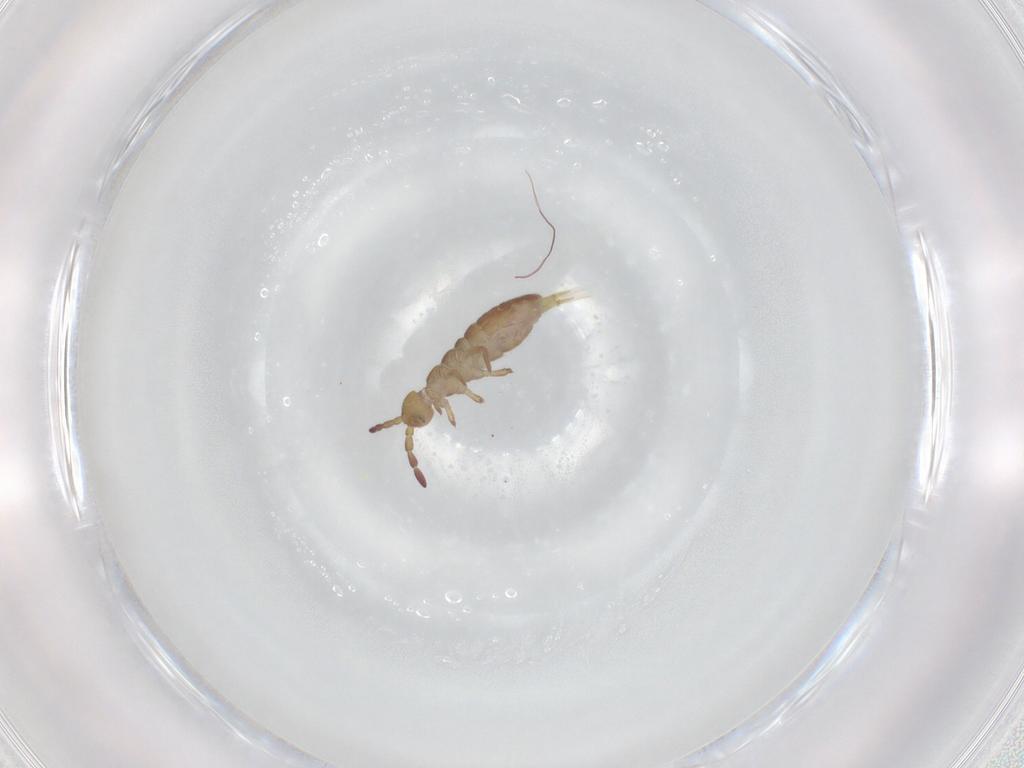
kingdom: Animalia
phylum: Arthropoda
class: Collembola
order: Entomobryomorpha
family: Isotomidae
